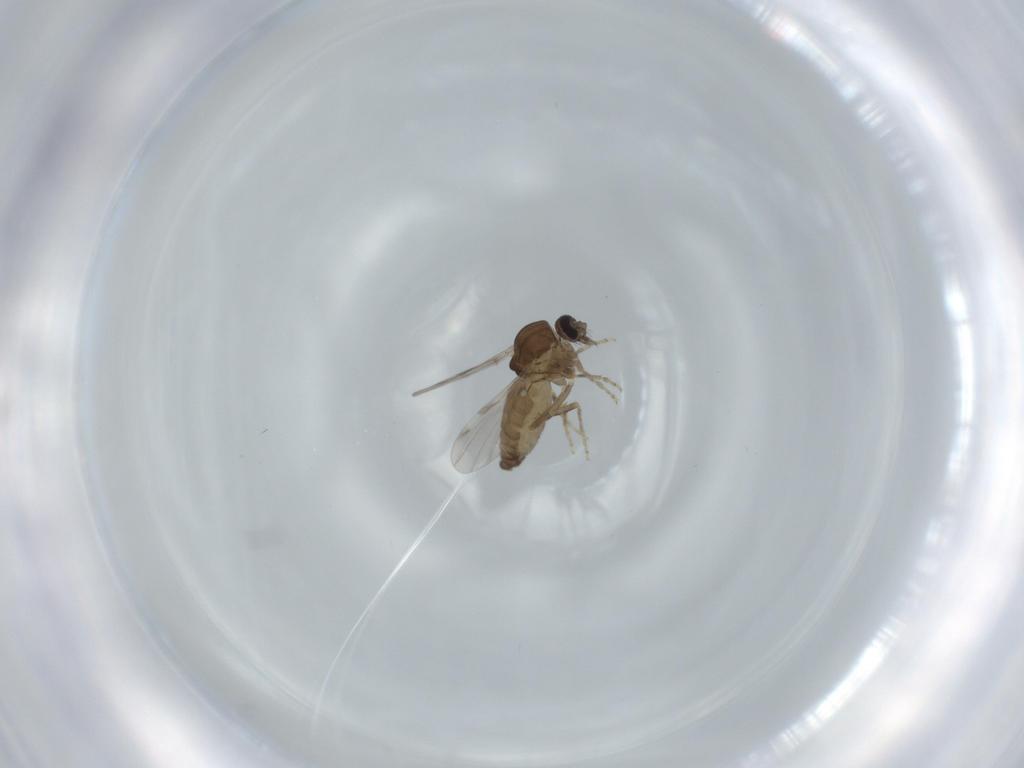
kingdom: Animalia
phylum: Arthropoda
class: Insecta
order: Diptera
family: Ceratopogonidae
